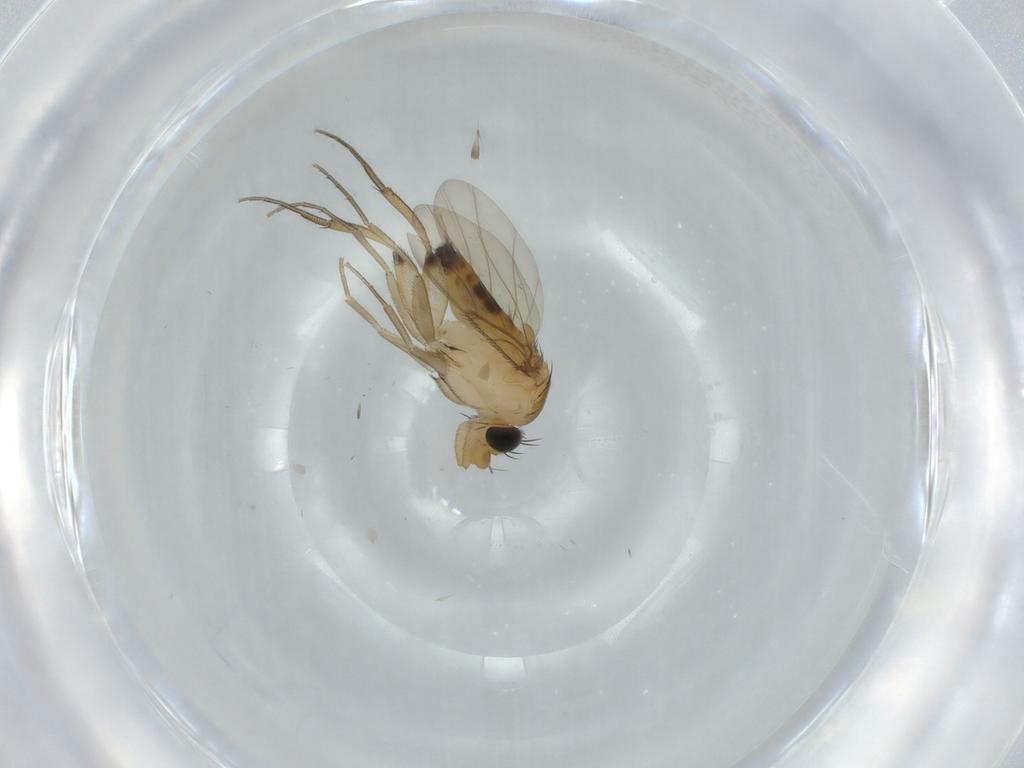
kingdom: Animalia
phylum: Arthropoda
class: Insecta
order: Diptera
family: Phoridae
